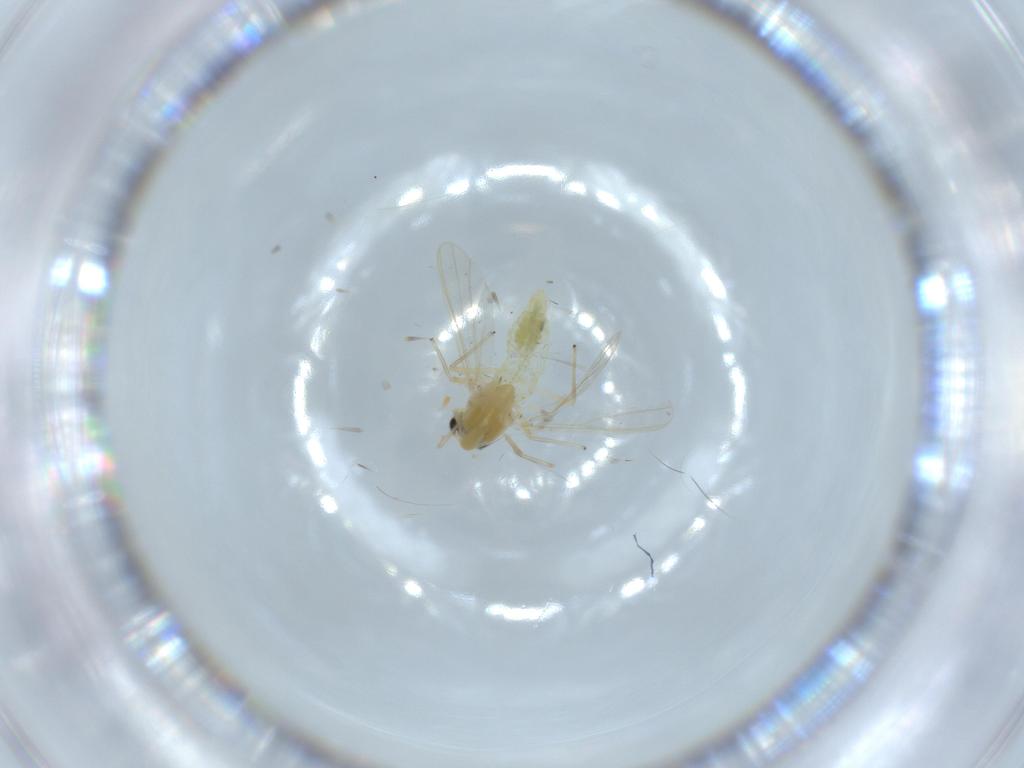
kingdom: Animalia
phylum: Arthropoda
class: Insecta
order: Diptera
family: Chironomidae
